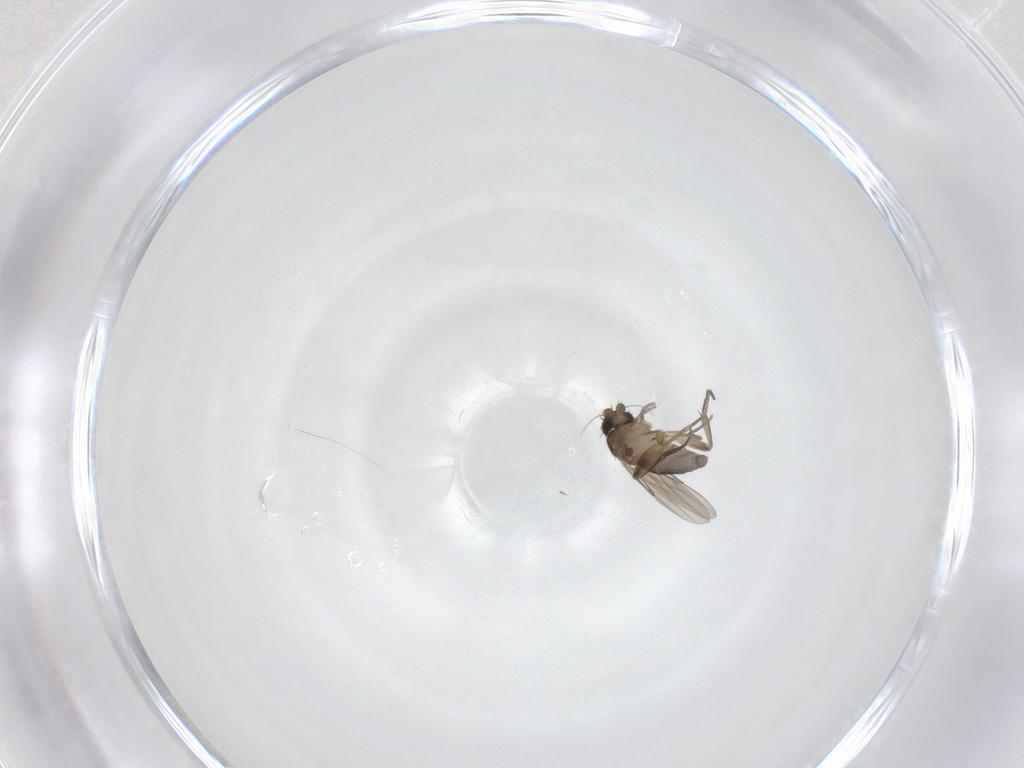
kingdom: Animalia
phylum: Arthropoda
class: Insecta
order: Diptera
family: Phoridae
